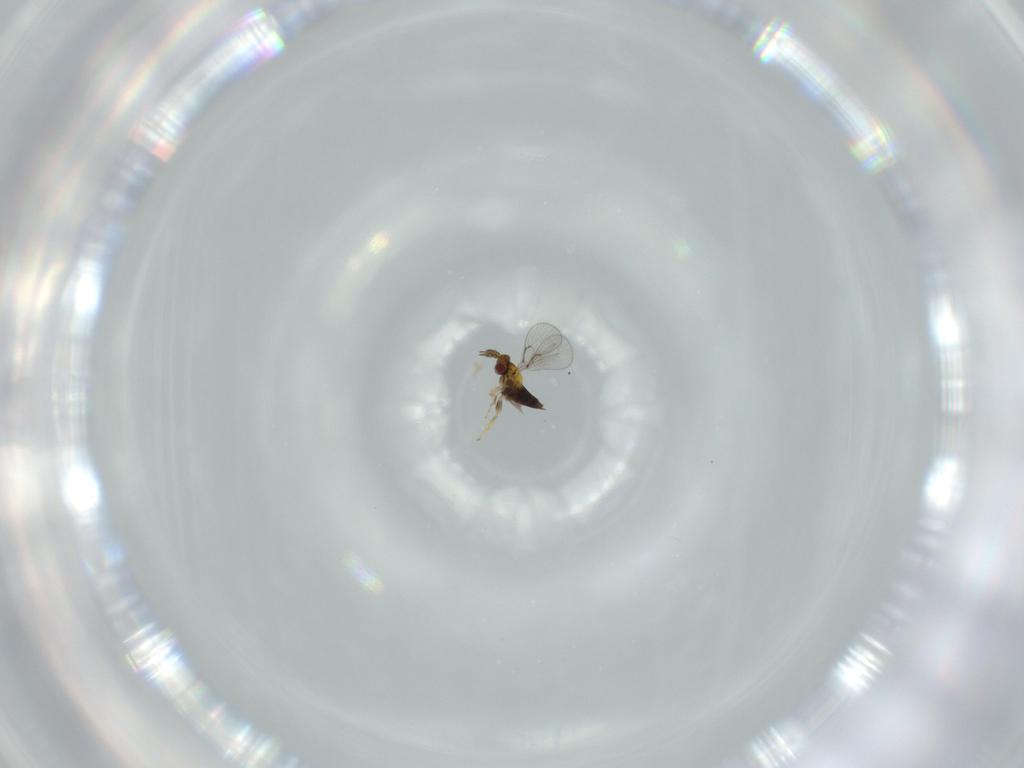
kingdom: Animalia
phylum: Arthropoda
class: Insecta
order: Hymenoptera
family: Trichogrammatidae
